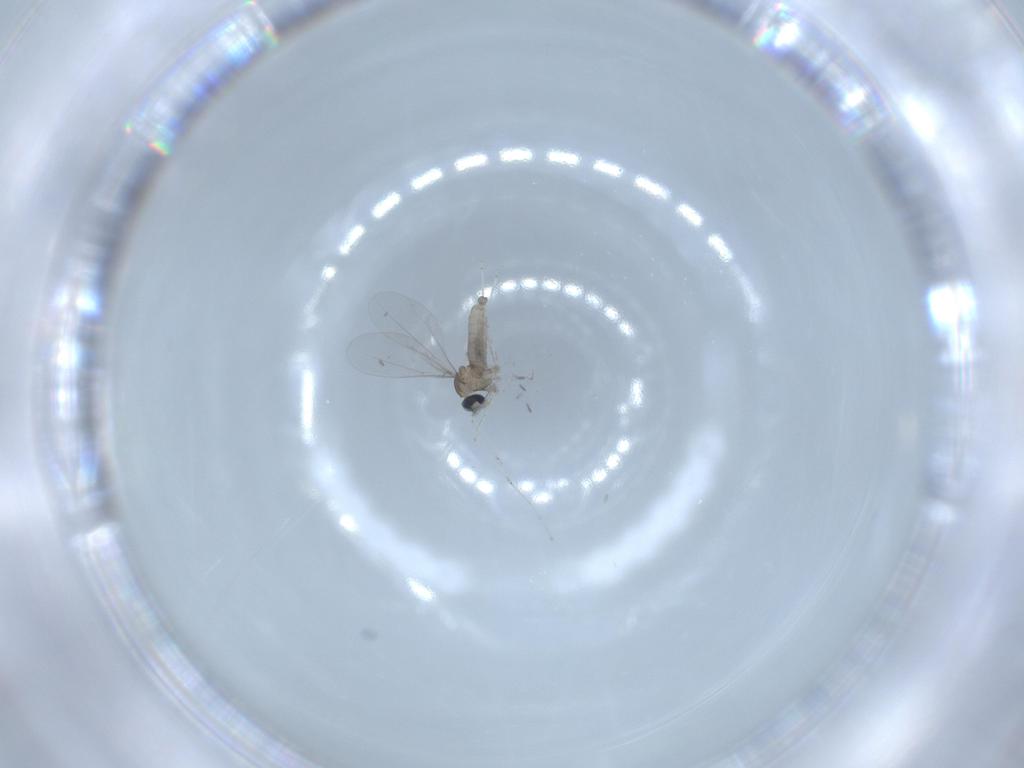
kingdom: Animalia
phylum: Arthropoda
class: Insecta
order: Diptera
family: Cecidomyiidae
